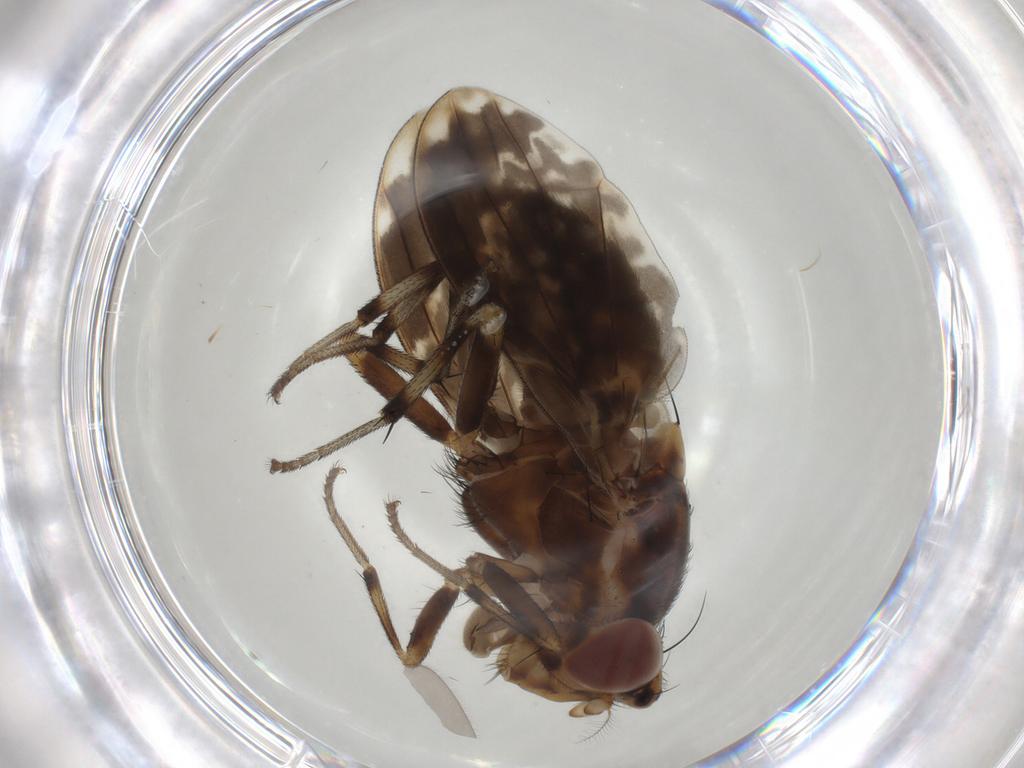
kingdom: Animalia
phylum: Arthropoda
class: Insecta
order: Diptera
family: Lauxaniidae
